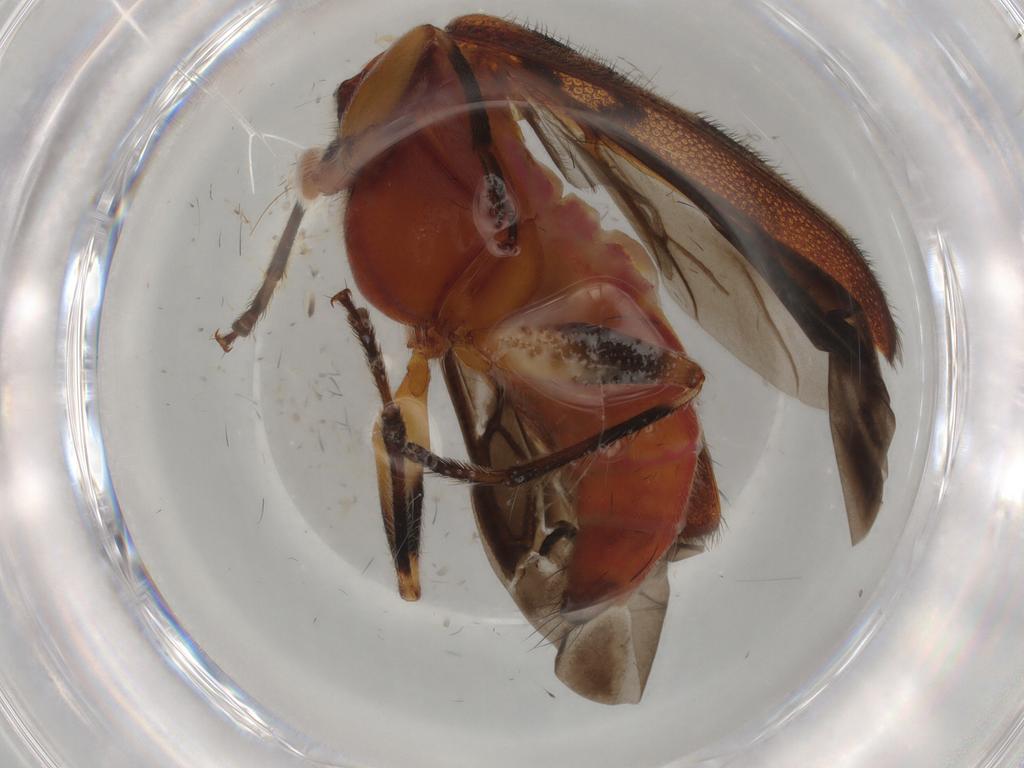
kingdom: Animalia
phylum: Arthropoda
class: Insecta
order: Coleoptera
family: Cleridae
